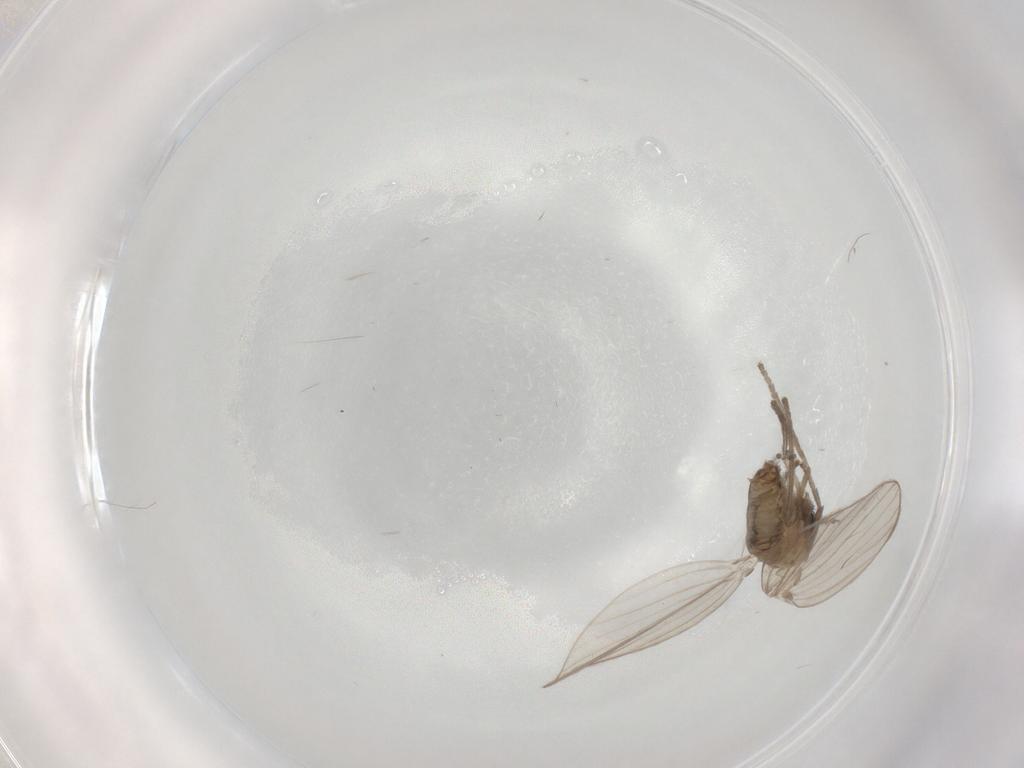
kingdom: Animalia
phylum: Arthropoda
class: Insecta
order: Diptera
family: Psychodidae
